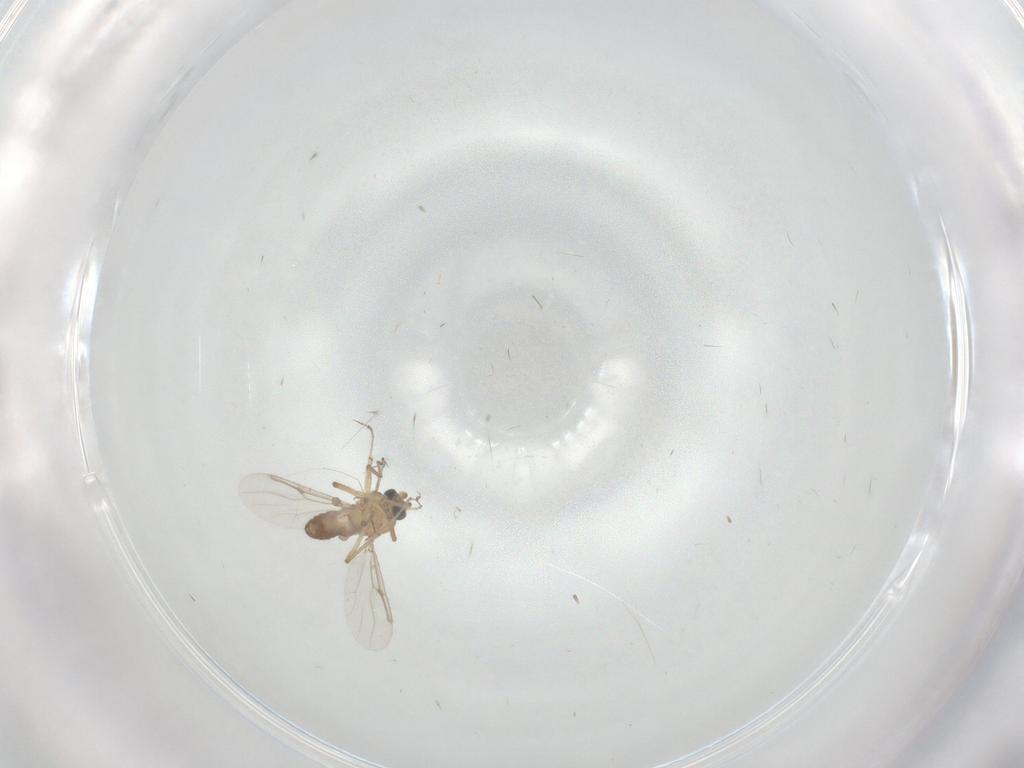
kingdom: Animalia
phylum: Arthropoda
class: Insecta
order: Diptera
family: Dolichopodidae
